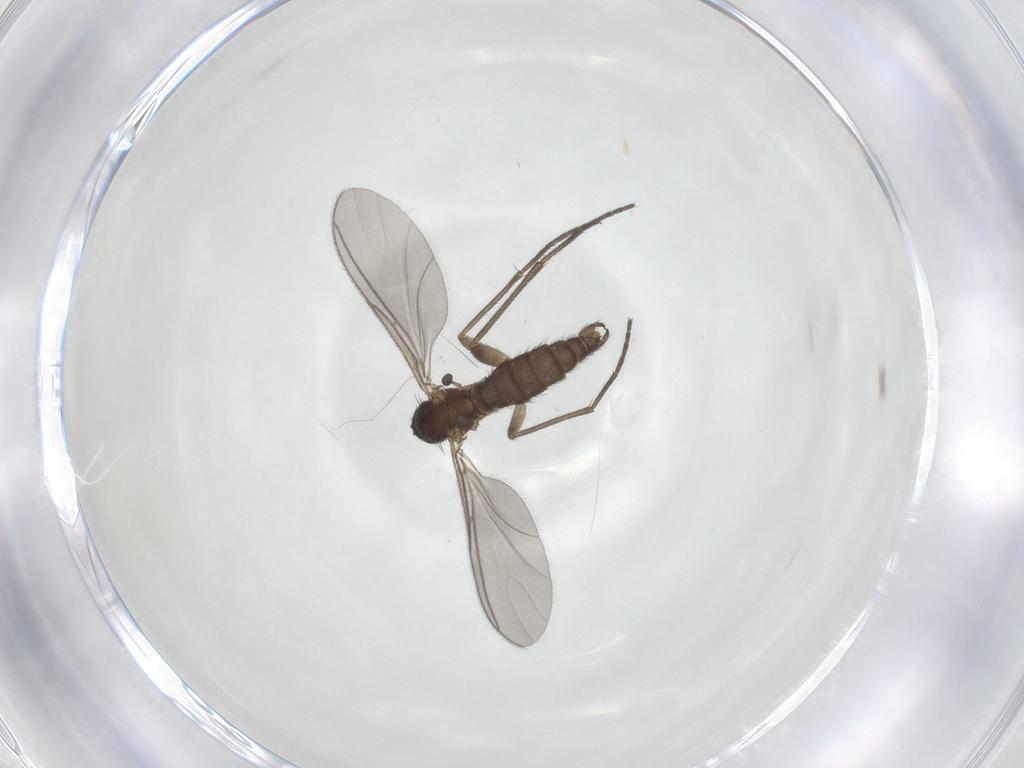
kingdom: Animalia
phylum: Arthropoda
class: Insecta
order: Diptera
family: Sciaridae
